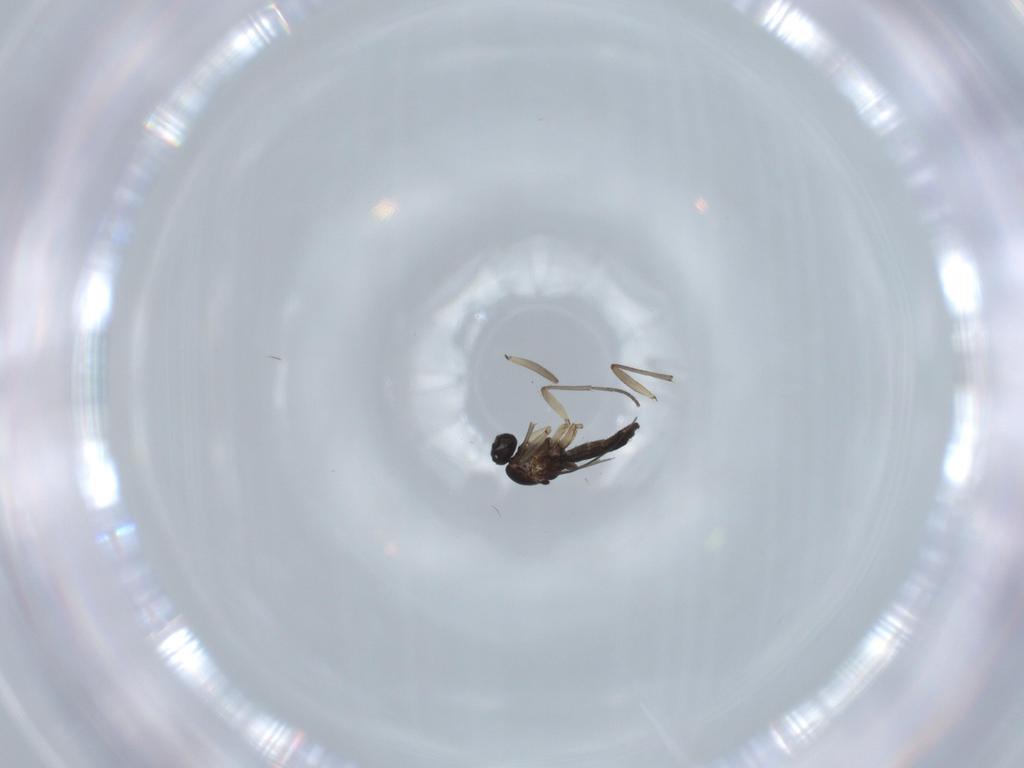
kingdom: Animalia
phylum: Arthropoda
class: Insecta
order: Diptera
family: Sciaridae
